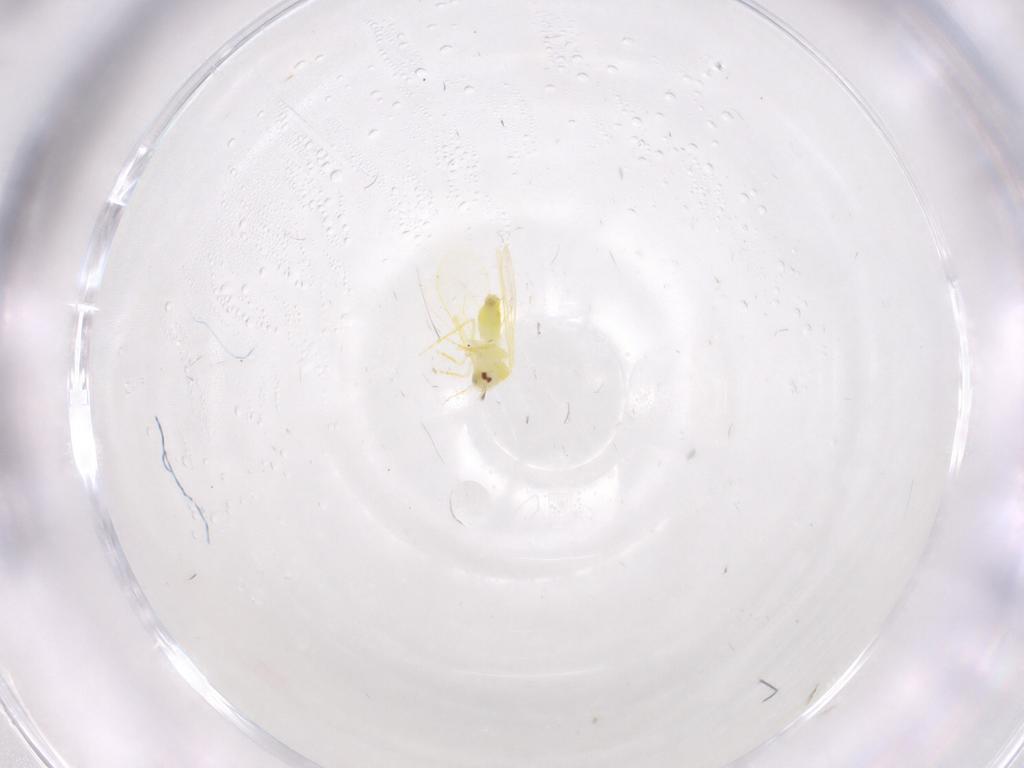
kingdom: Animalia
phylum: Arthropoda
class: Insecta
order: Hemiptera
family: Aleyrodidae
